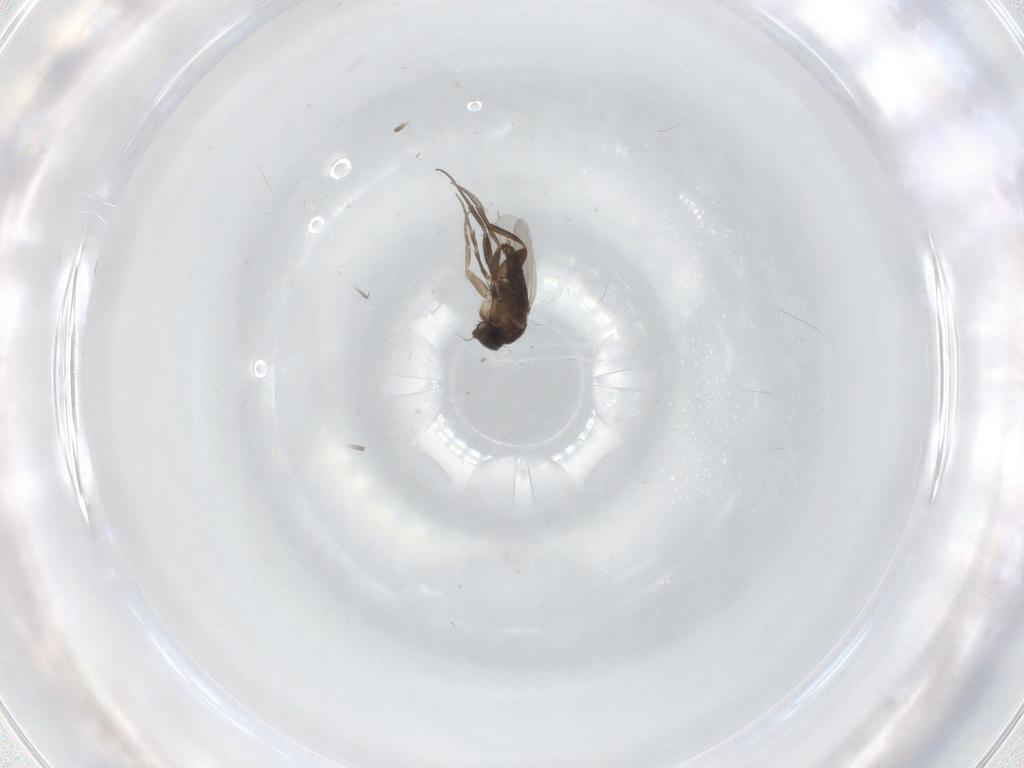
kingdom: Animalia
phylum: Arthropoda
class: Insecta
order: Diptera
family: Phoridae
